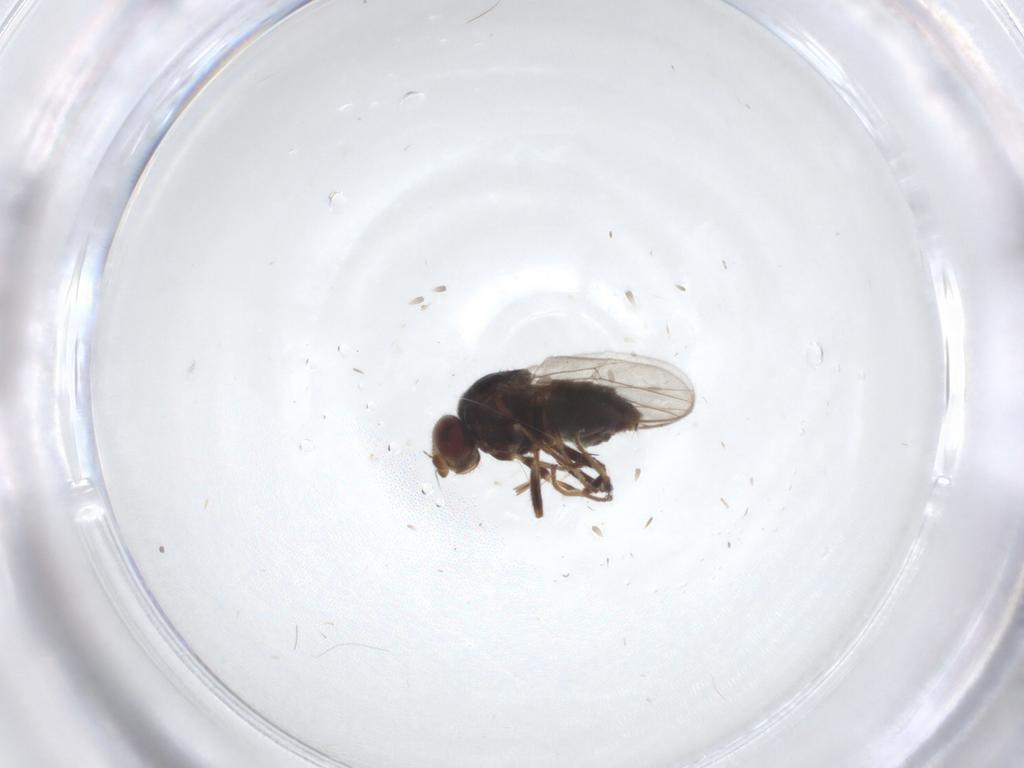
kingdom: Animalia
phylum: Arthropoda
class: Insecta
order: Diptera
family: Chloropidae
